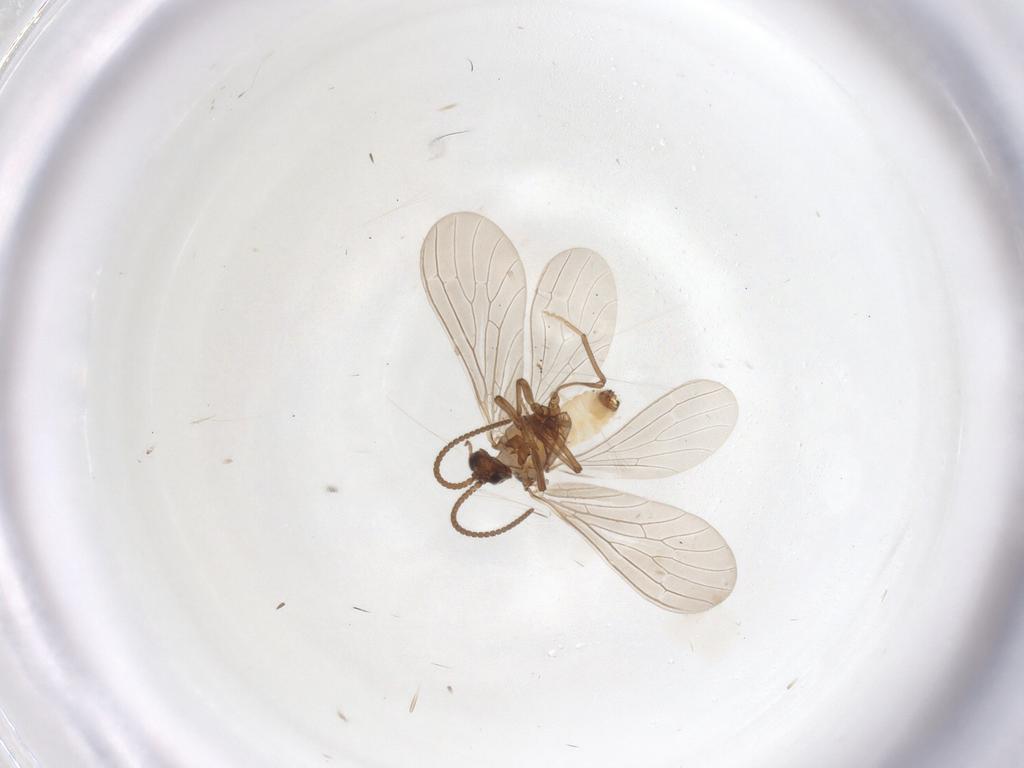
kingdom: Animalia
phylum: Arthropoda
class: Insecta
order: Neuroptera
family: Coniopterygidae
